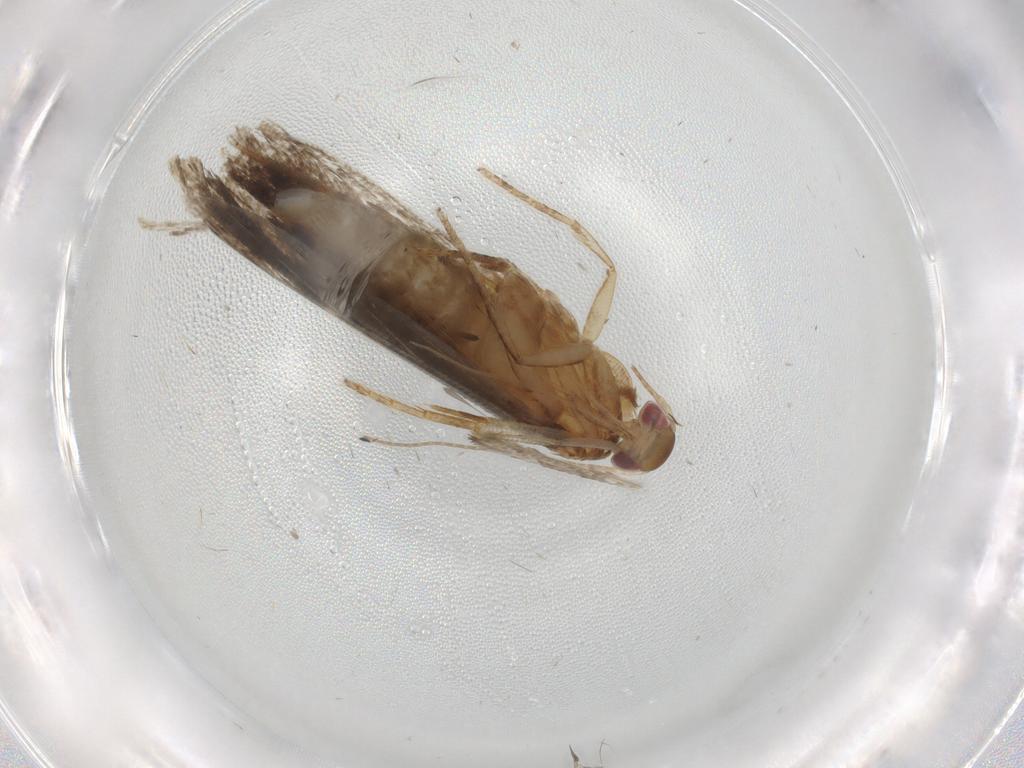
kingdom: Animalia
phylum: Arthropoda
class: Insecta
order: Lepidoptera
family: Gelechiidae
